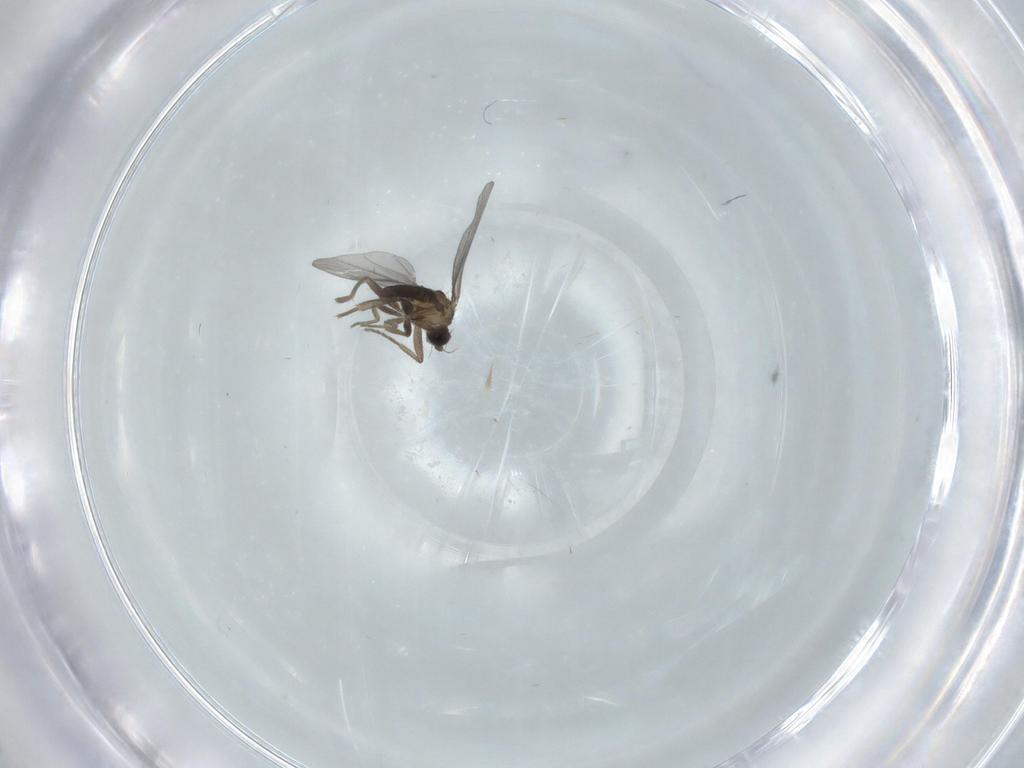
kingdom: Animalia
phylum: Arthropoda
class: Insecta
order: Diptera
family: Phoridae
